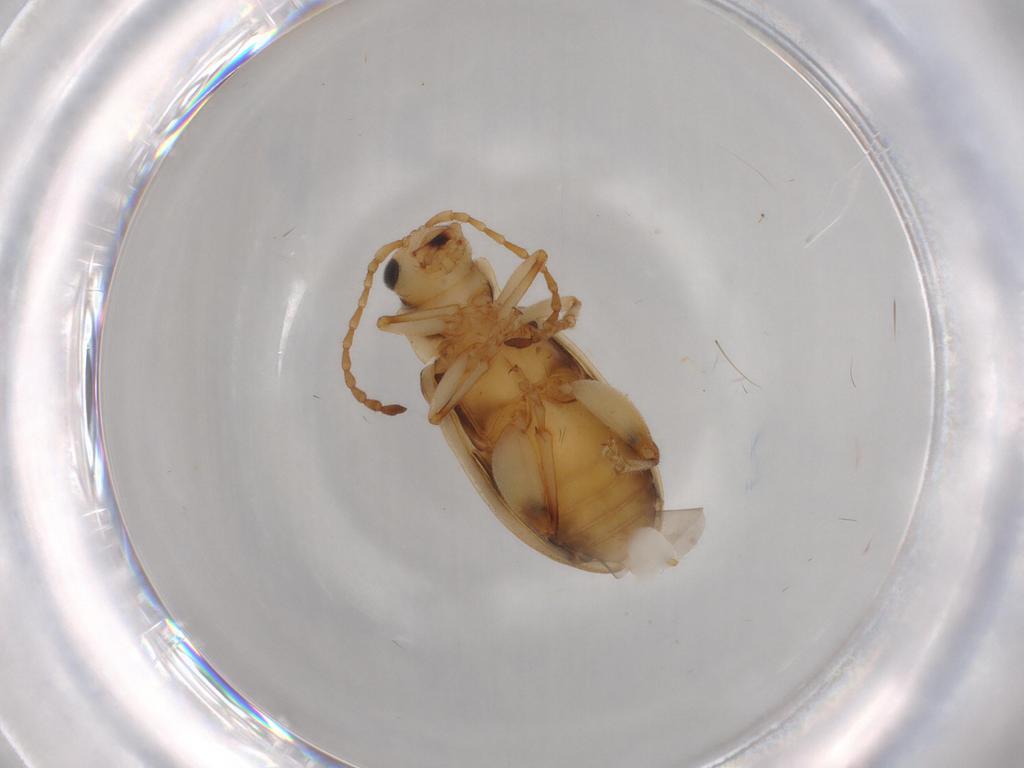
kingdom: Animalia
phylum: Arthropoda
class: Insecta
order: Coleoptera
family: Chrysomelidae
